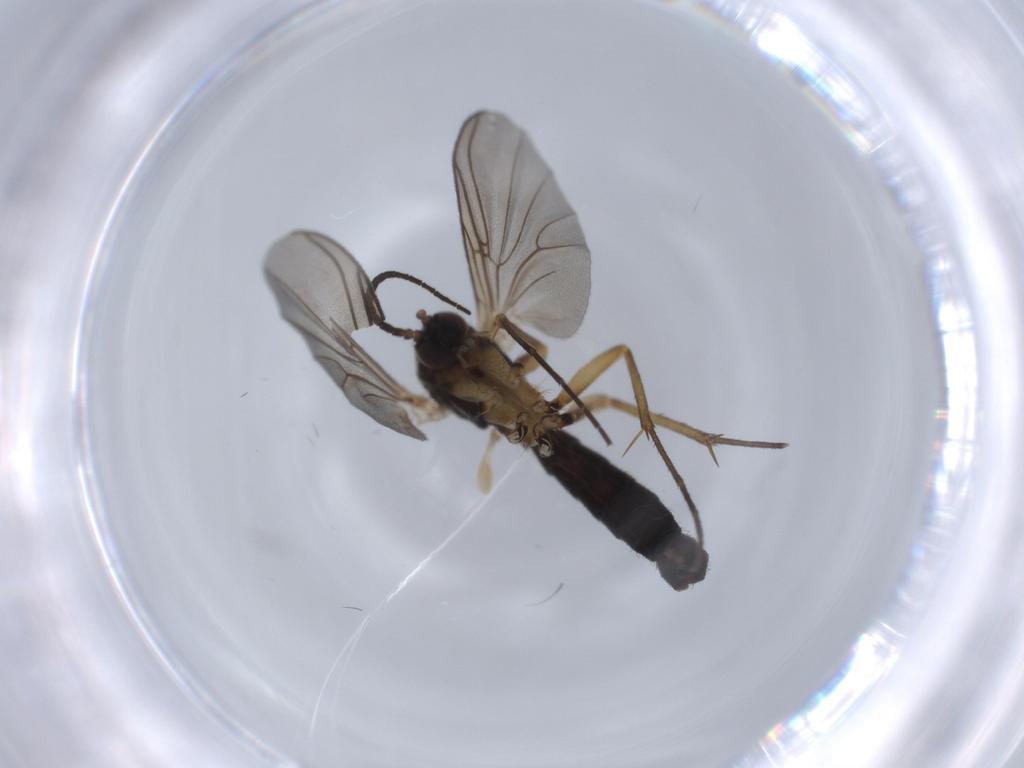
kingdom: Animalia
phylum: Arthropoda
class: Insecta
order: Diptera
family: Mycetophilidae
